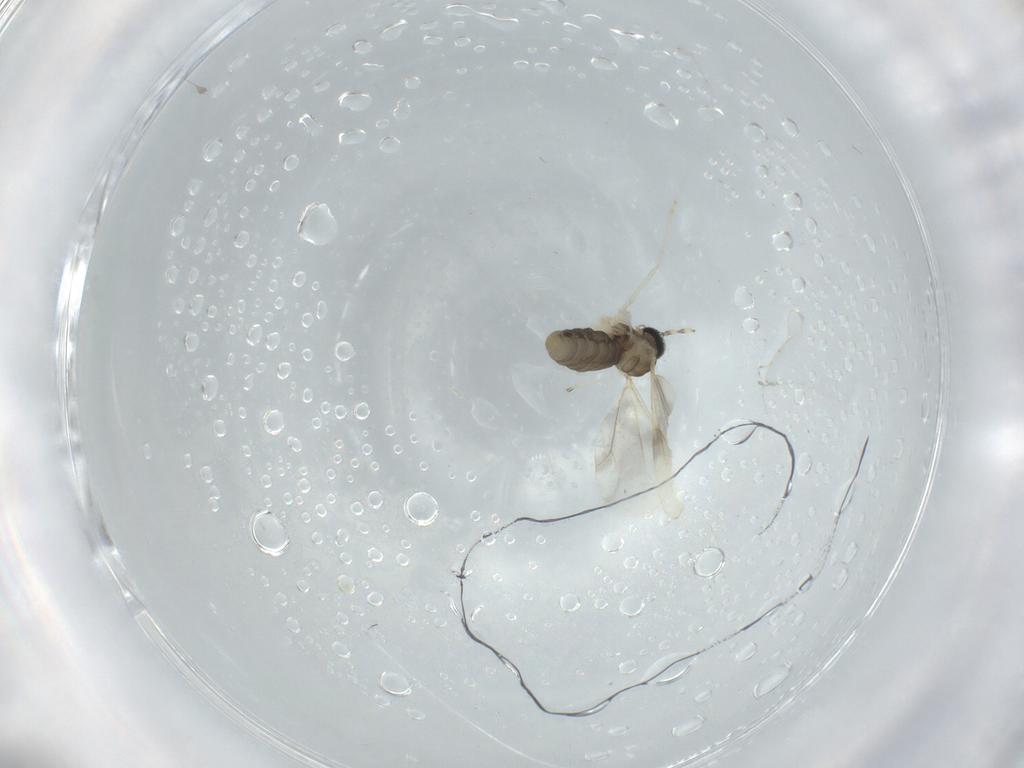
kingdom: Animalia
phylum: Arthropoda
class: Insecta
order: Diptera
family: Cecidomyiidae
